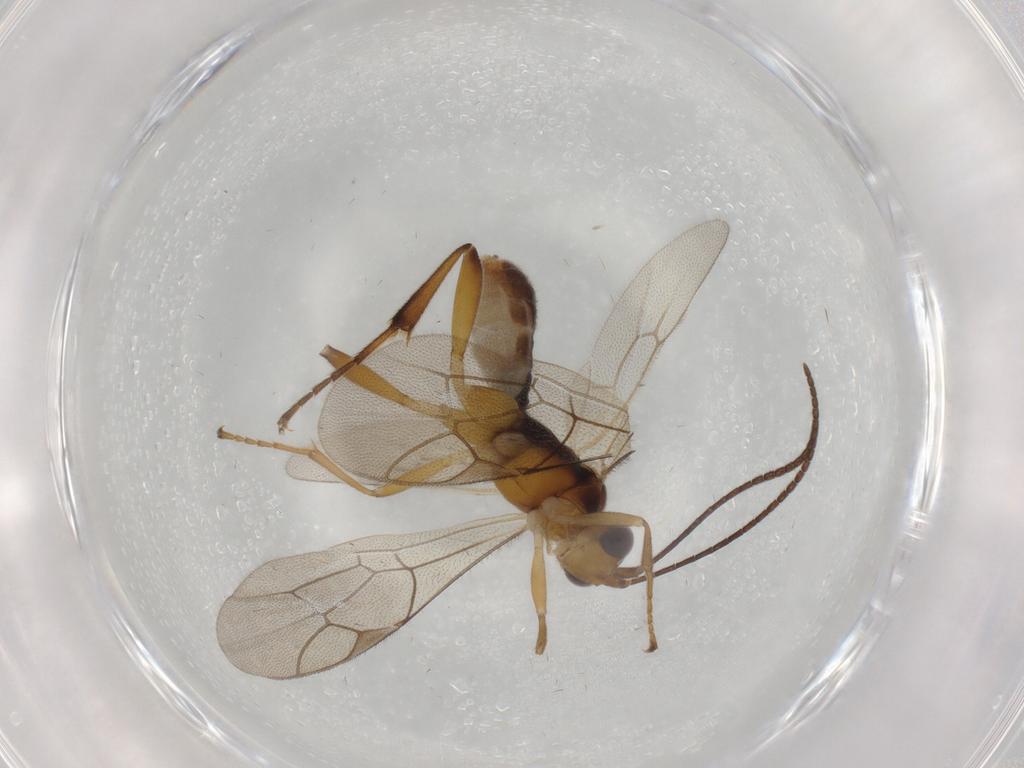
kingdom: Animalia
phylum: Arthropoda
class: Insecta
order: Hymenoptera
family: Ichneumonidae
